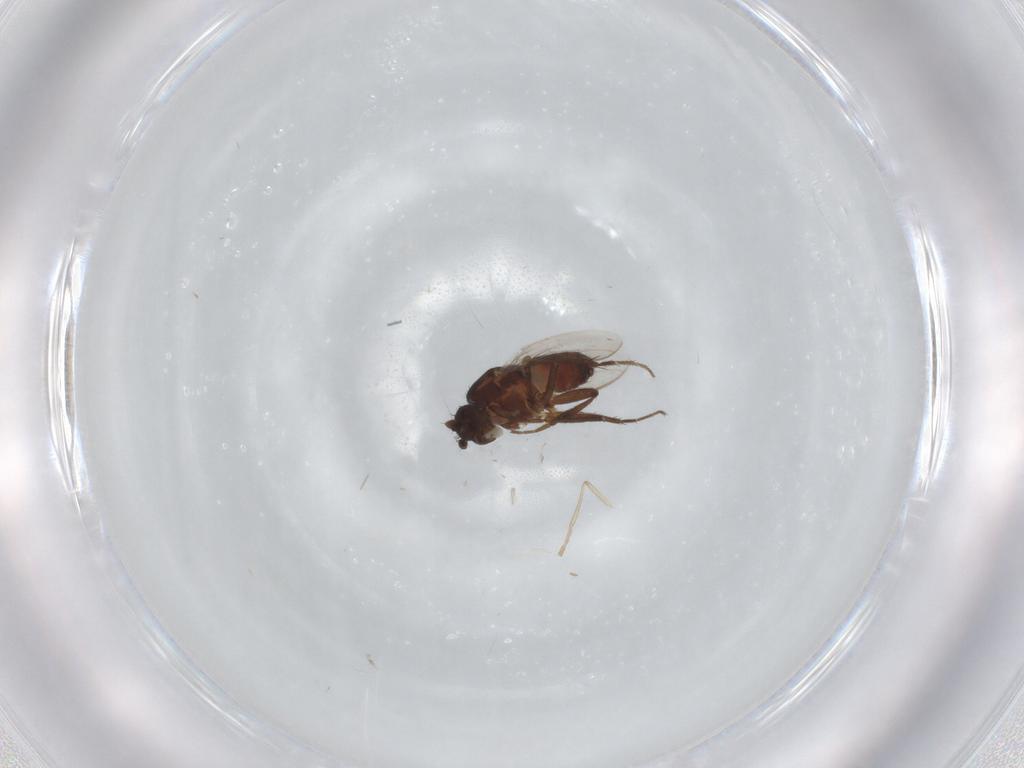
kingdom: Animalia
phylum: Arthropoda
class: Insecta
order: Diptera
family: Sphaeroceridae
